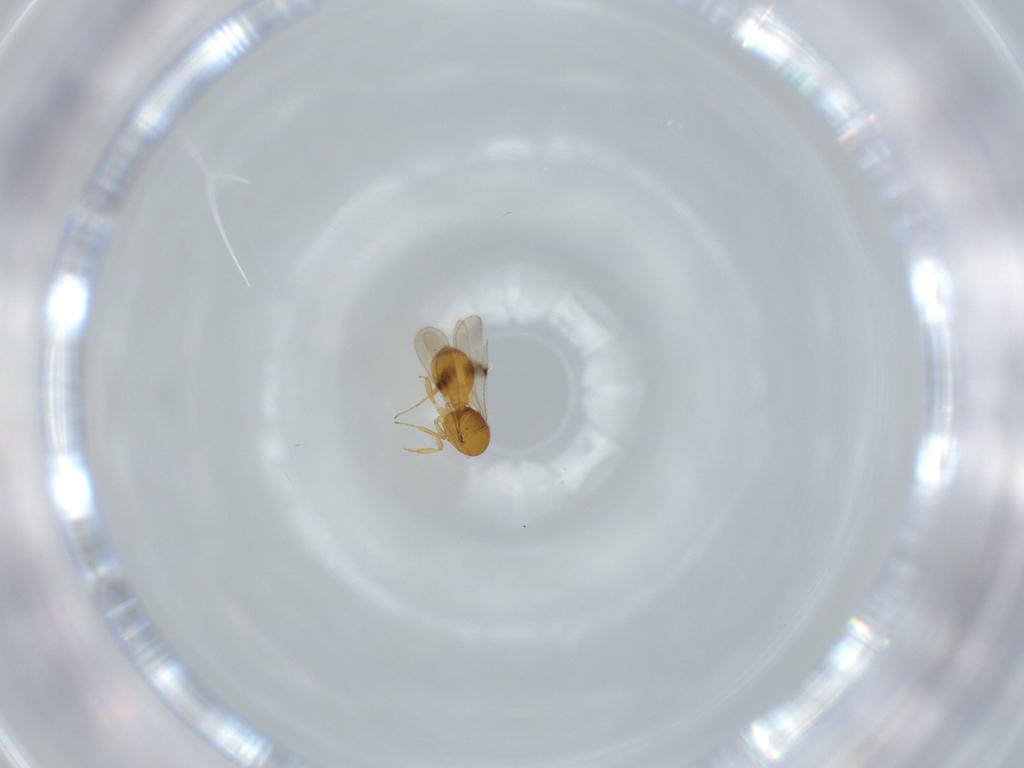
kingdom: Animalia
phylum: Arthropoda
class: Insecta
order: Hymenoptera
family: Scelionidae
